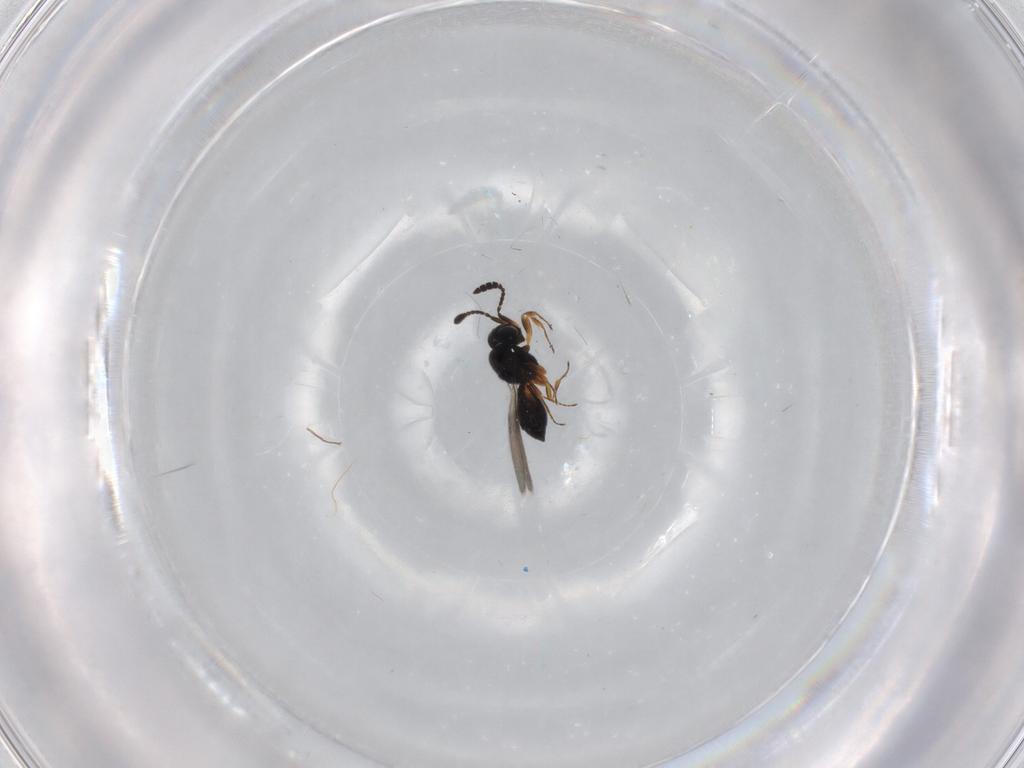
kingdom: Animalia
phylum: Arthropoda
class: Insecta
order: Hymenoptera
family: Scelionidae
